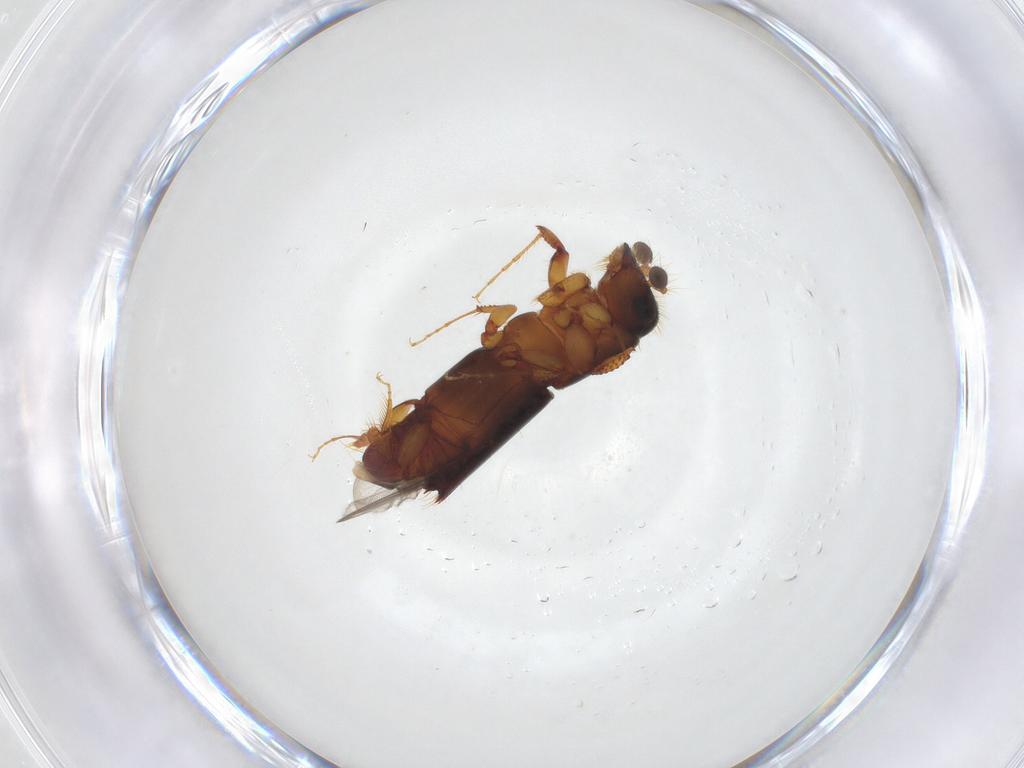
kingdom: Animalia
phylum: Arthropoda
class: Insecta
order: Coleoptera
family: Curculionidae
